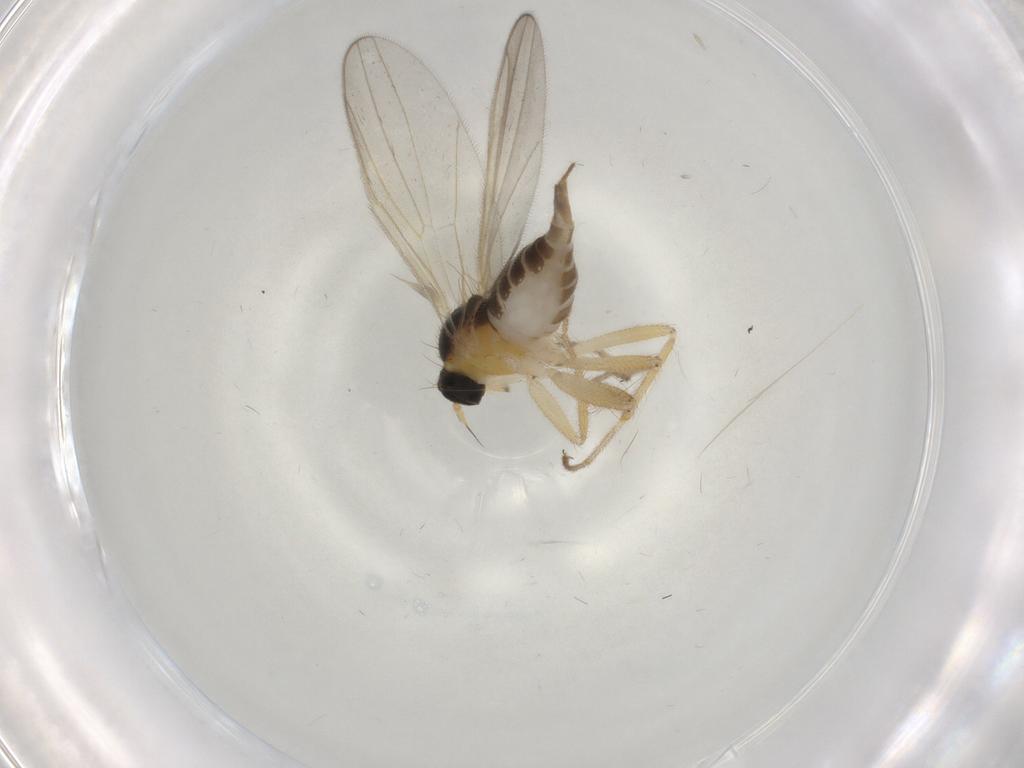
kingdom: Animalia
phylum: Arthropoda
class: Insecta
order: Diptera
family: Hybotidae
